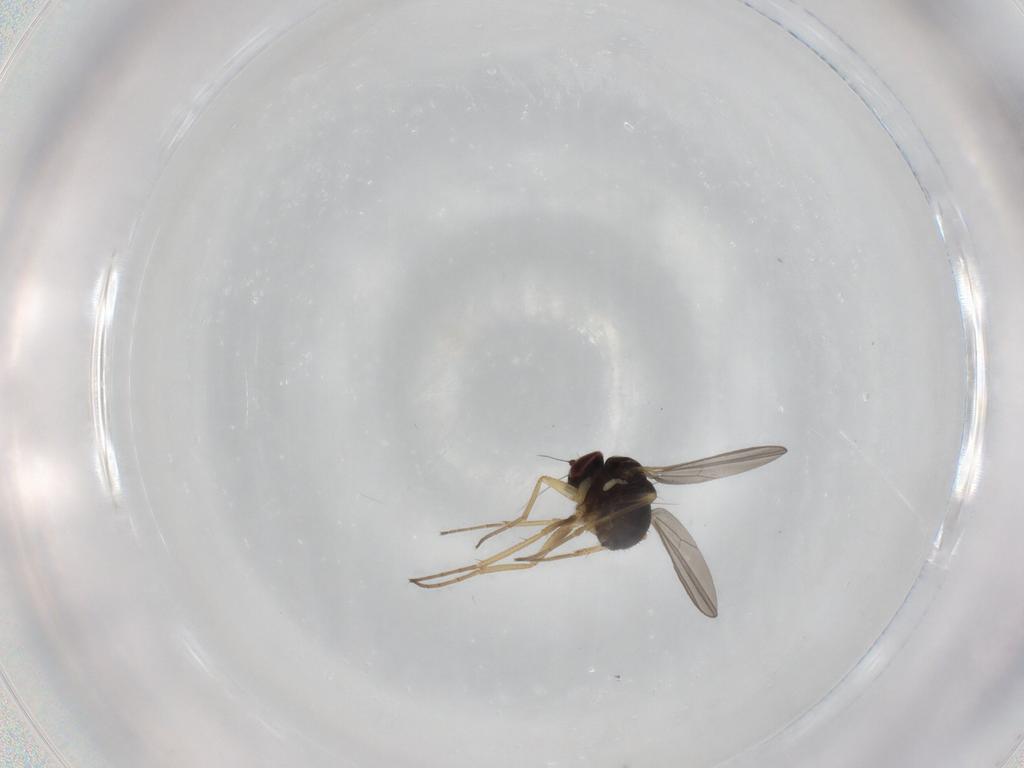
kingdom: Animalia
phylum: Arthropoda
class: Insecta
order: Diptera
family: Dolichopodidae
